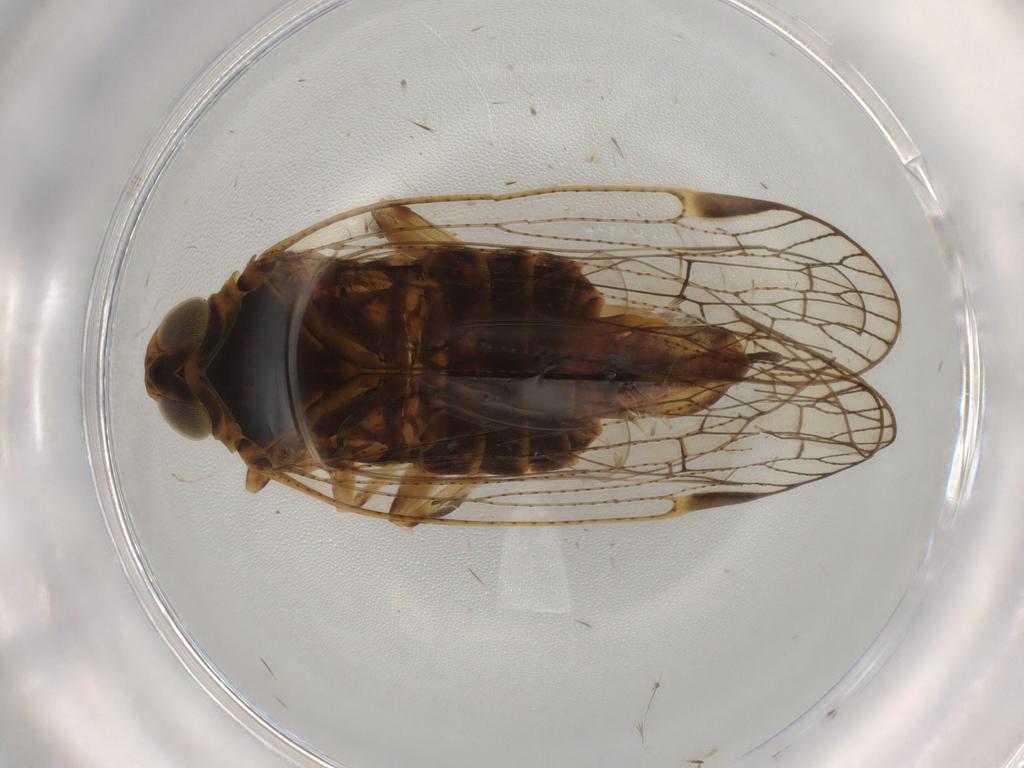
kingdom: Animalia
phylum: Arthropoda
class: Insecta
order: Hemiptera
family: Cixiidae
